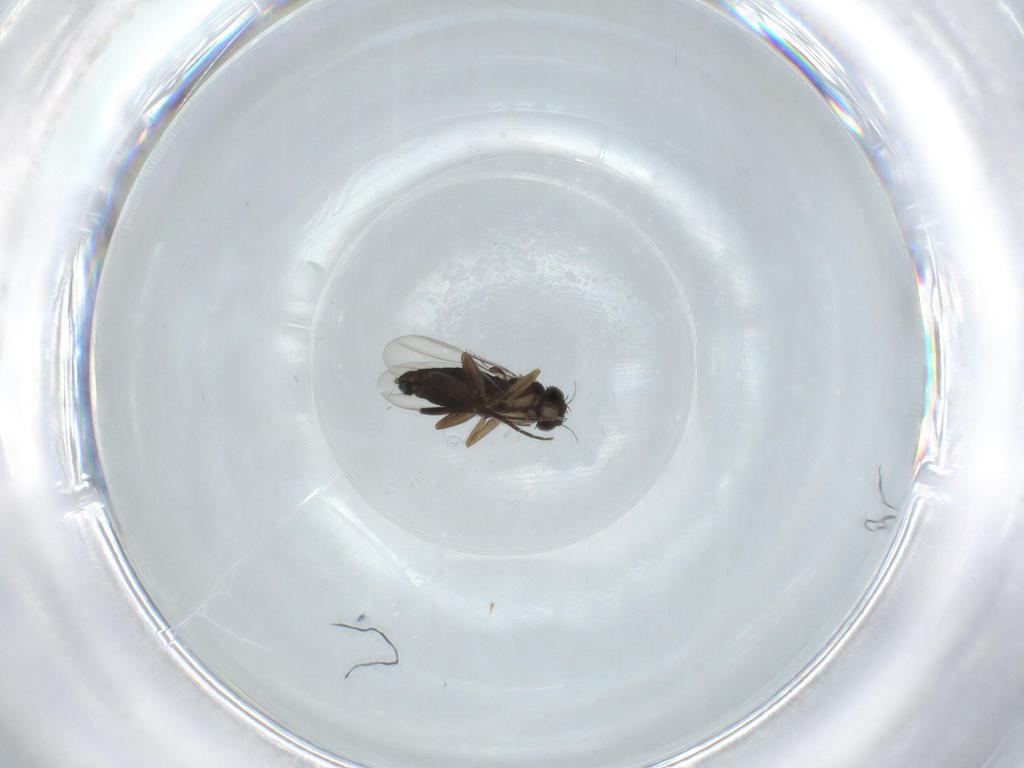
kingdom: Animalia
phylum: Arthropoda
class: Insecta
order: Diptera
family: Phoridae
